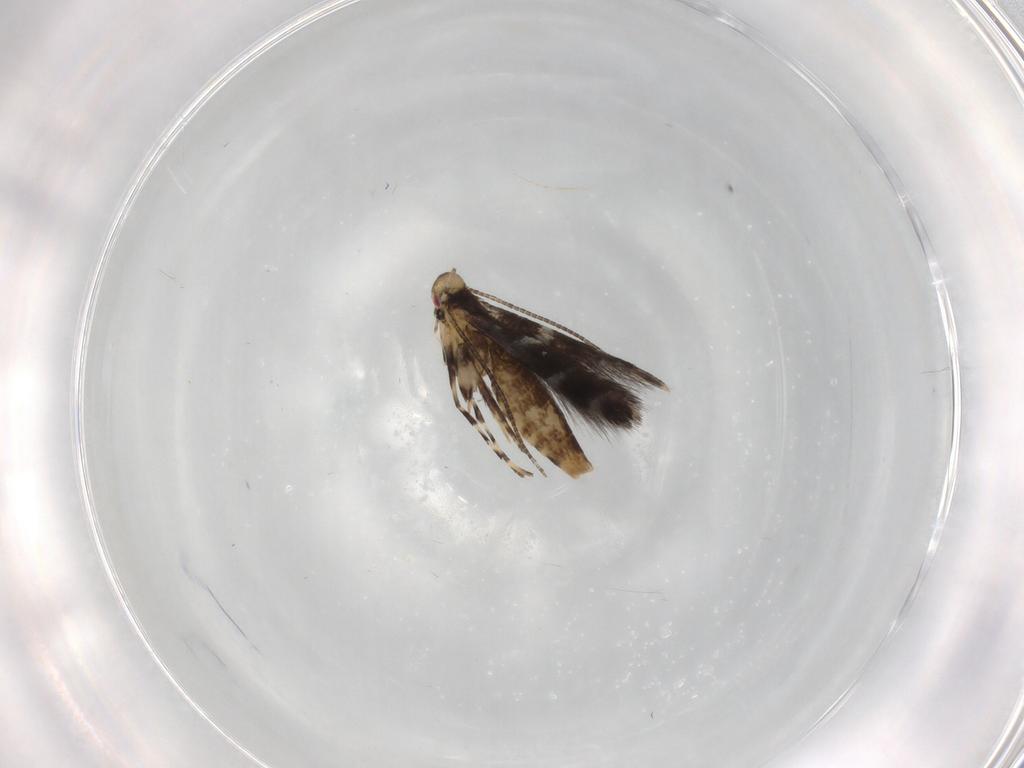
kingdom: Animalia
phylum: Arthropoda
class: Insecta
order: Lepidoptera
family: Gracillariidae
